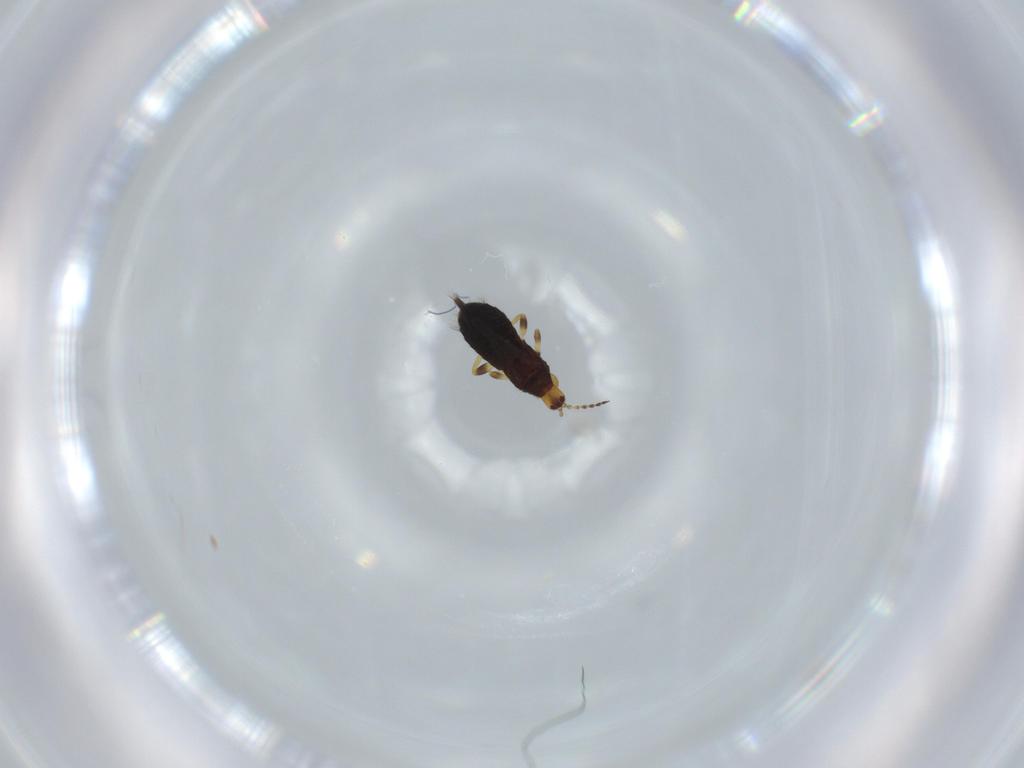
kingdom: Animalia
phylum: Arthropoda
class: Insecta
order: Thysanoptera
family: Phlaeothripidae
